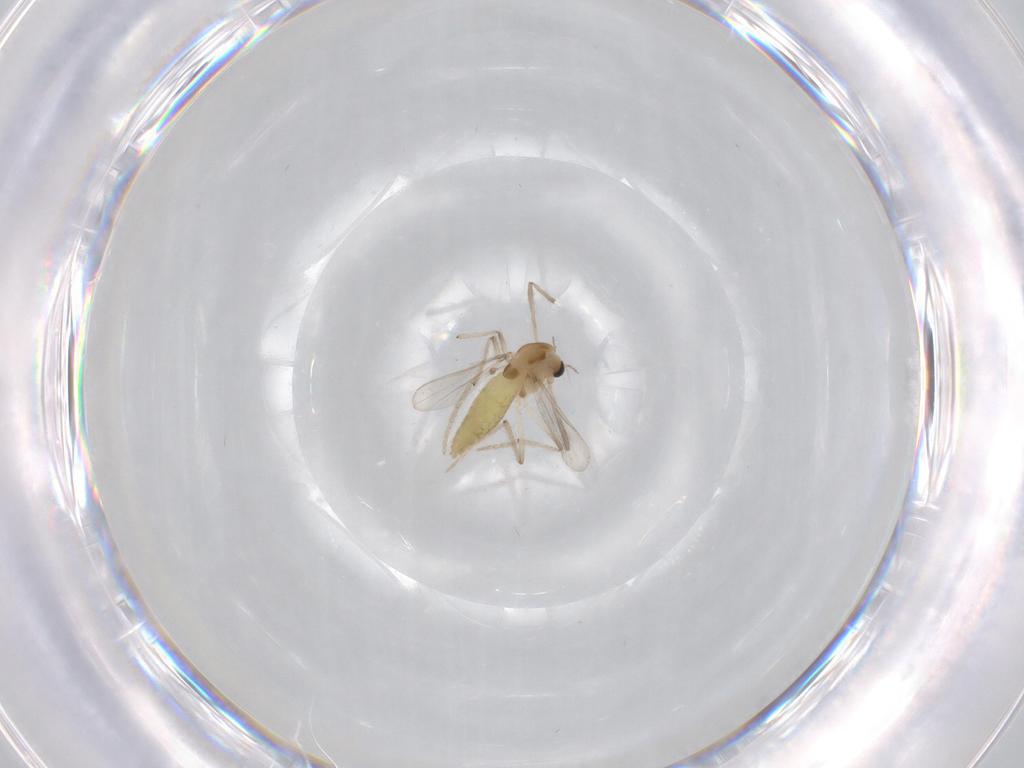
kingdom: Animalia
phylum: Arthropoda
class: Insecta
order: Diptera
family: Chironomidae
